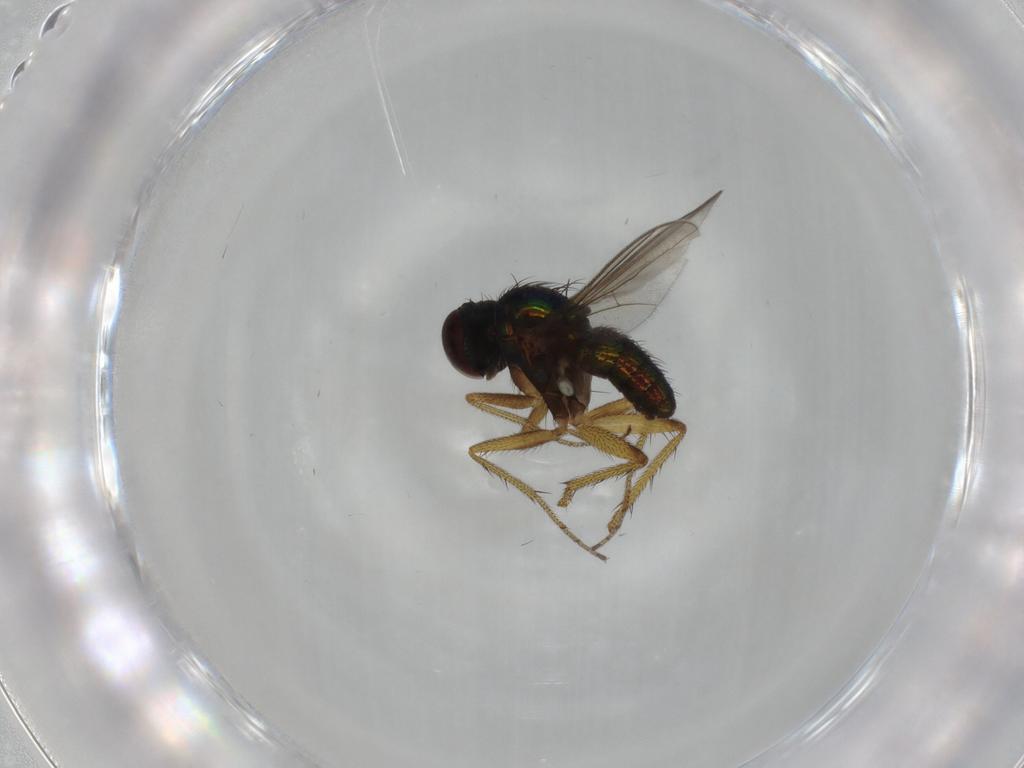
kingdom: Animalia
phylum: Arthropoda
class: Insecta
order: Diptera
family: Dolichopodidae
